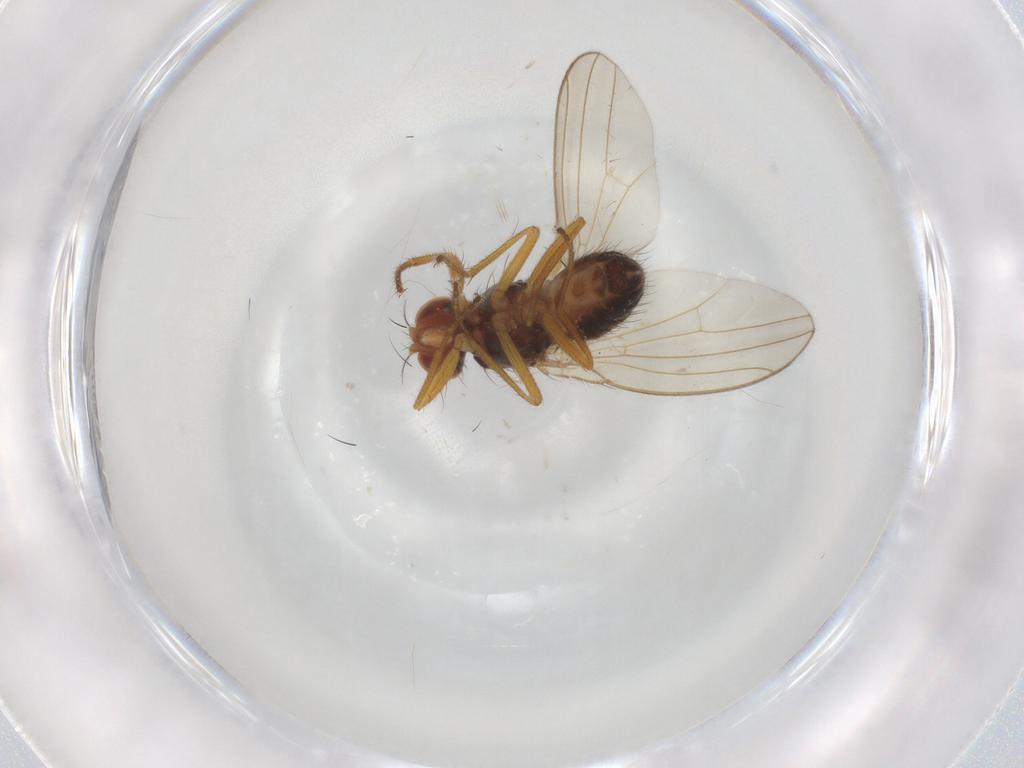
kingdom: Animalia
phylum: Arthropoda
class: Insecta
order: Diptera
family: Drosophilidae
